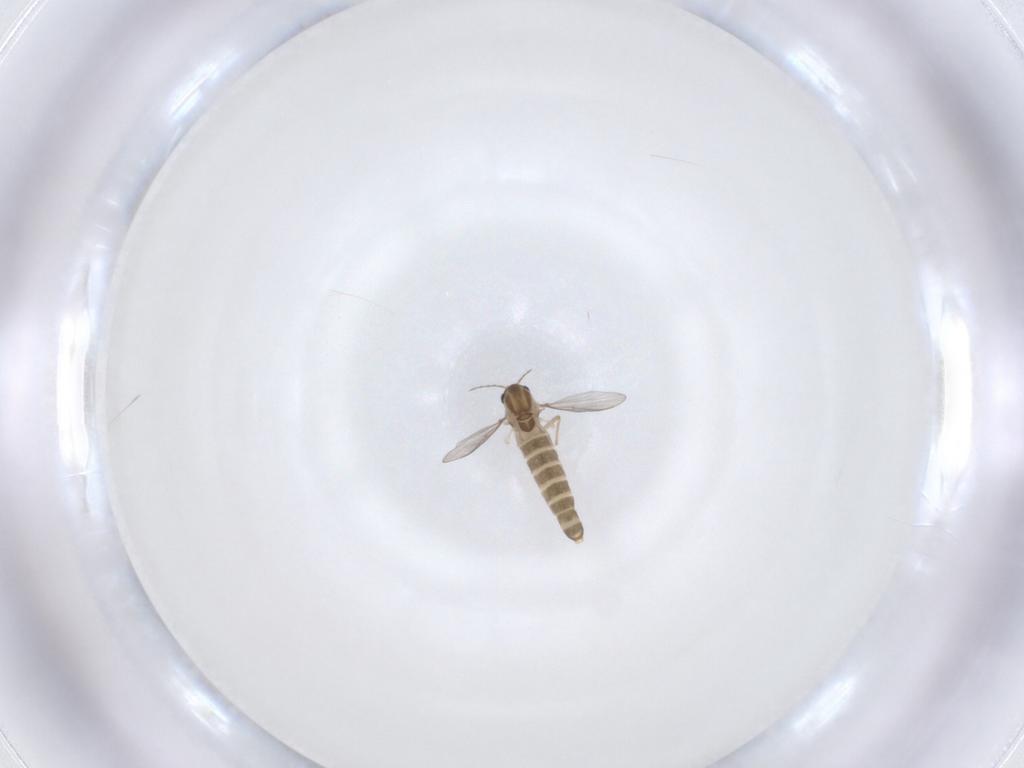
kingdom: Animalia
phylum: Arthropoda
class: Insecta
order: Diptera
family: Chironomidae
